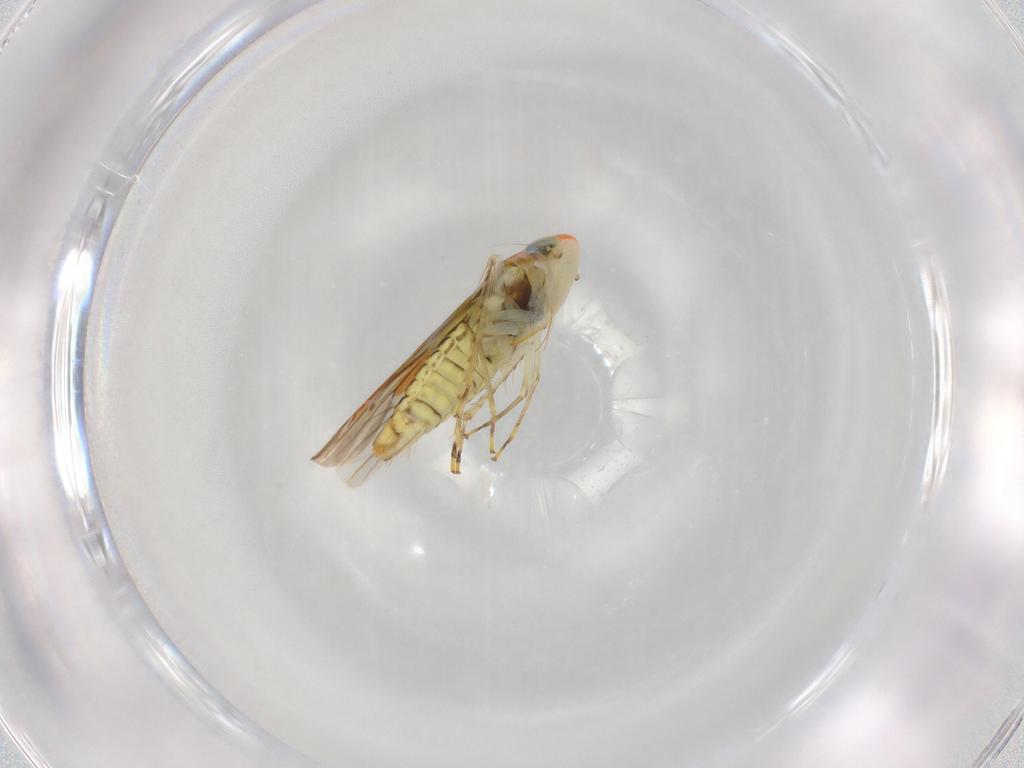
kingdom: Animalia
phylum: Arthropoda
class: Insecta
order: Hemiptera
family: Cicadellidae
